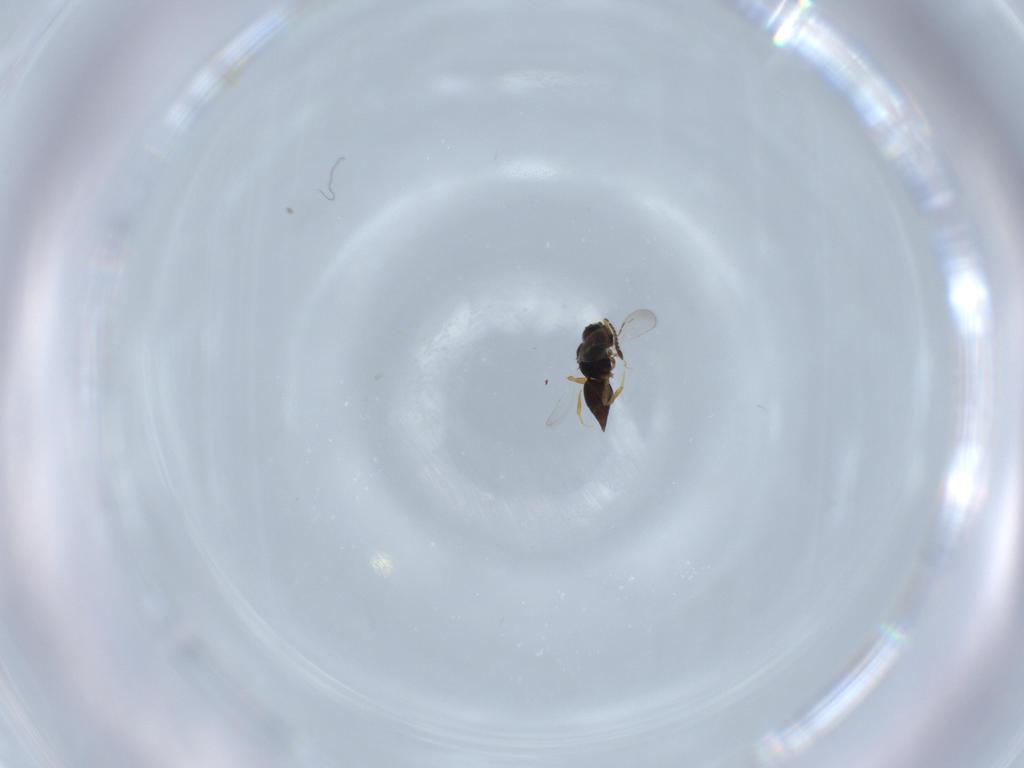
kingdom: Animalia
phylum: Arthropoda
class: Insecta
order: Hymenoptera
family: Ceraphronidae
